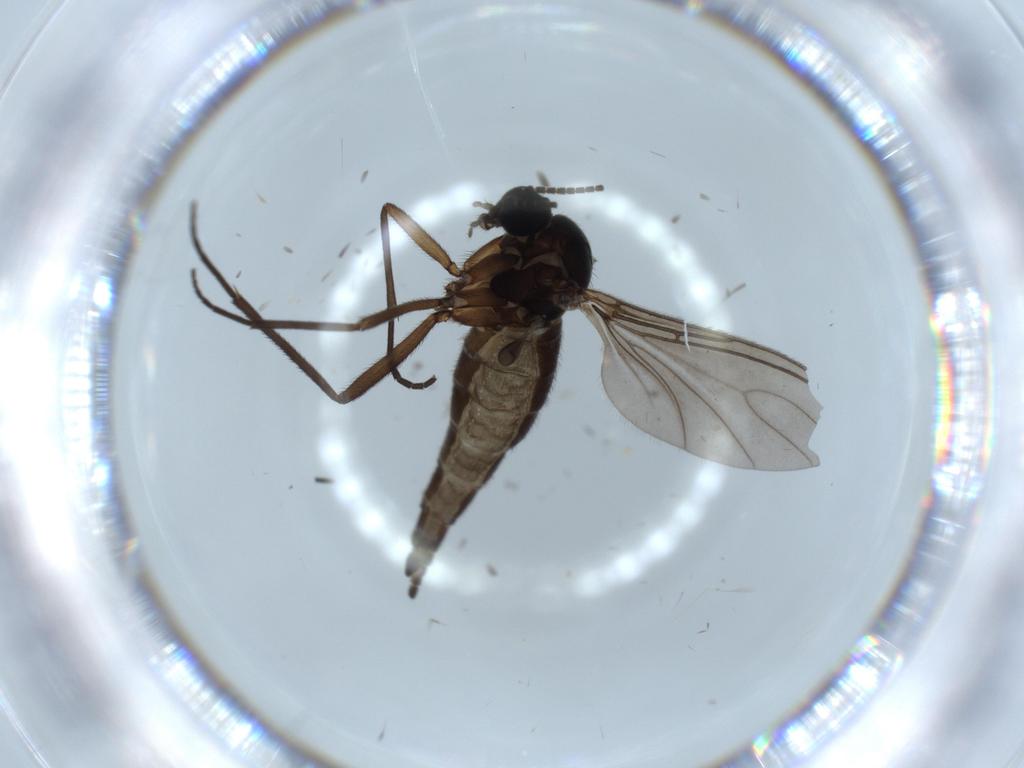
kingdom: Animalia
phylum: Arthropoda
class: Insecta
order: Diptera
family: Sciaridae
